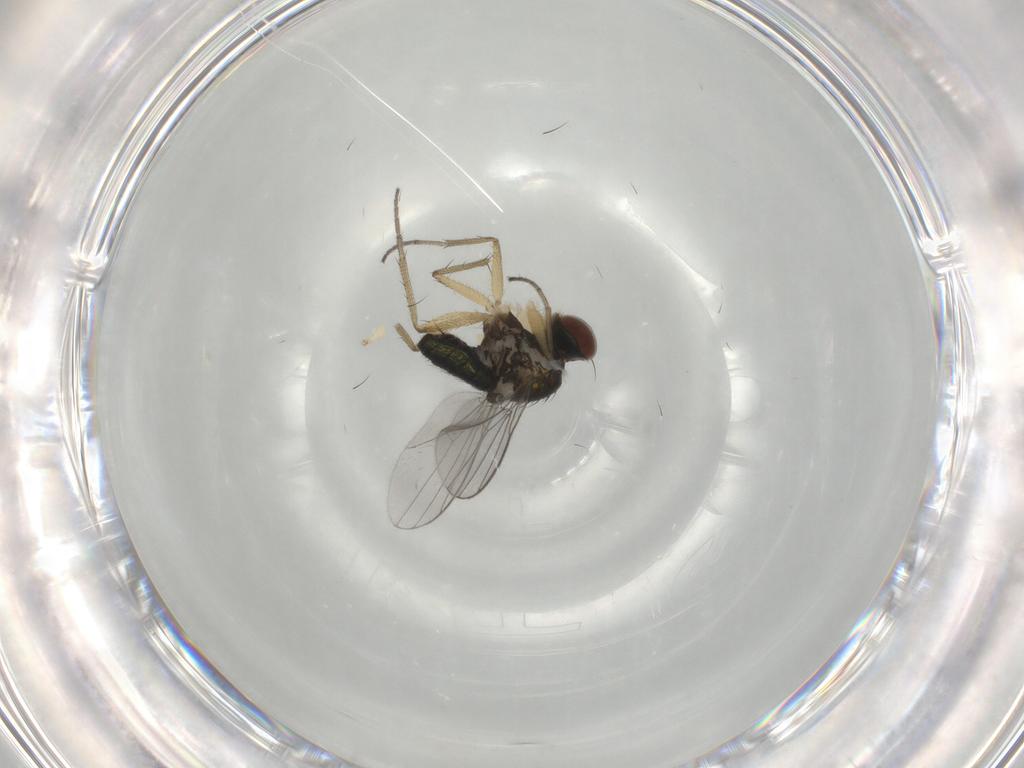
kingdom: Animalia
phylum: Arthropoda
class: Insecta
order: Diptera
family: Dolichopodidae
